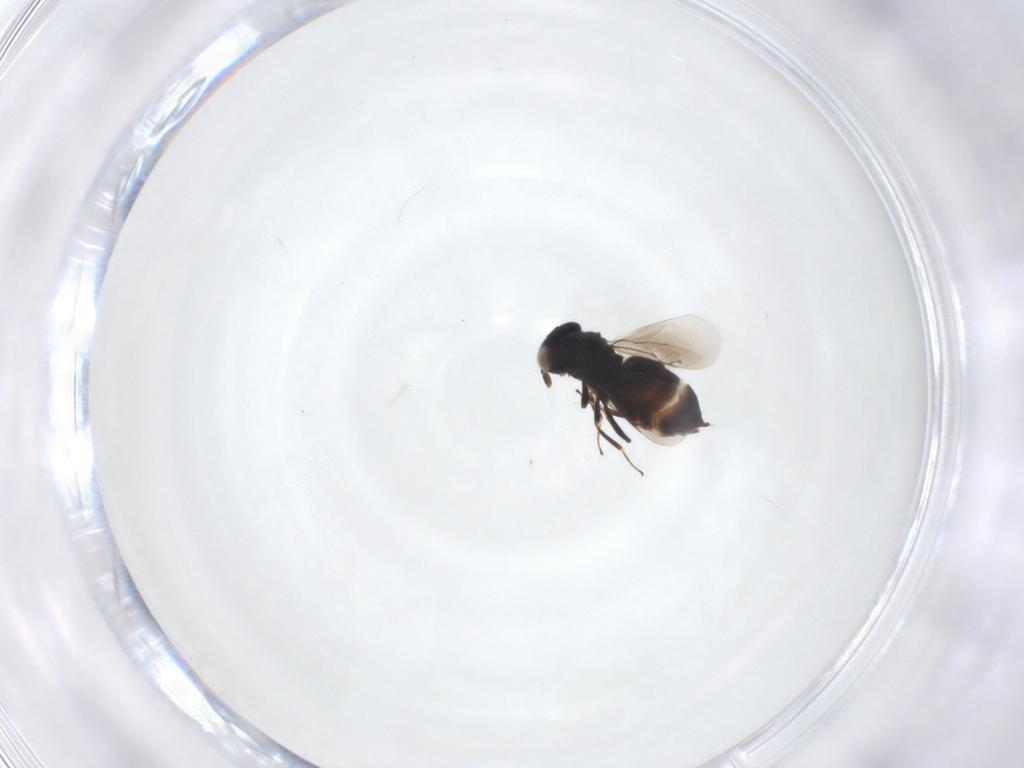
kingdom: Animalia
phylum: Arthropoda
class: Insecta
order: Hymenoptera
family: Eunotidae
